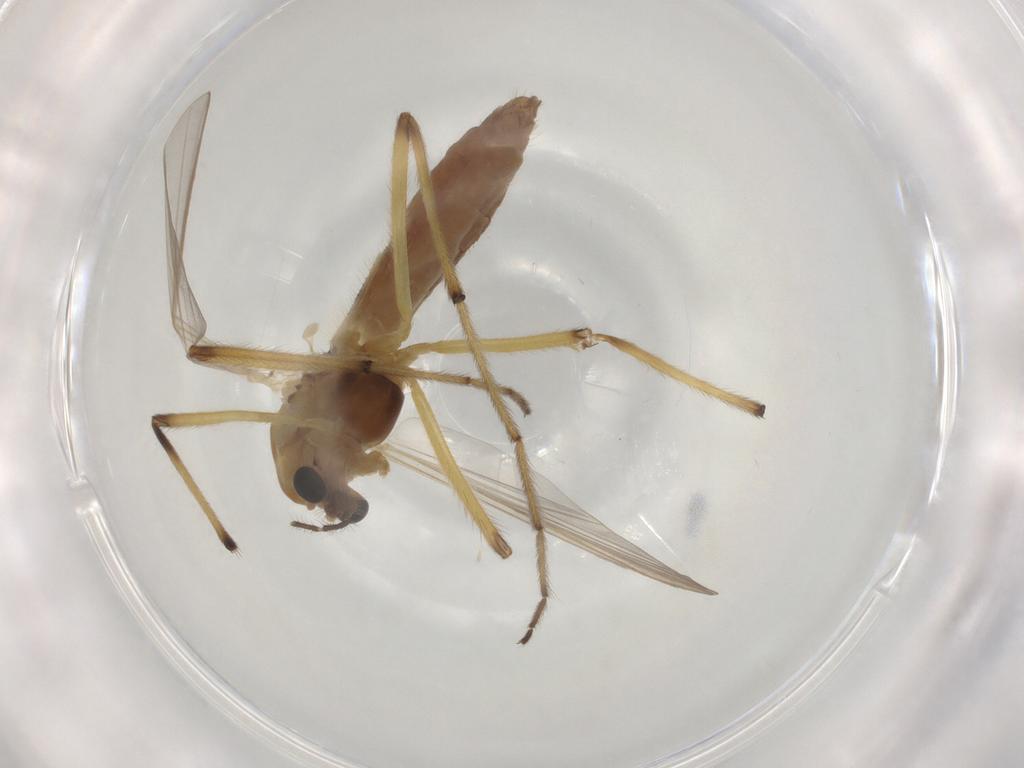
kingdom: Animalia
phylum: Arthropoda
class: Insecta
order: Diptera
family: Chironomidae
